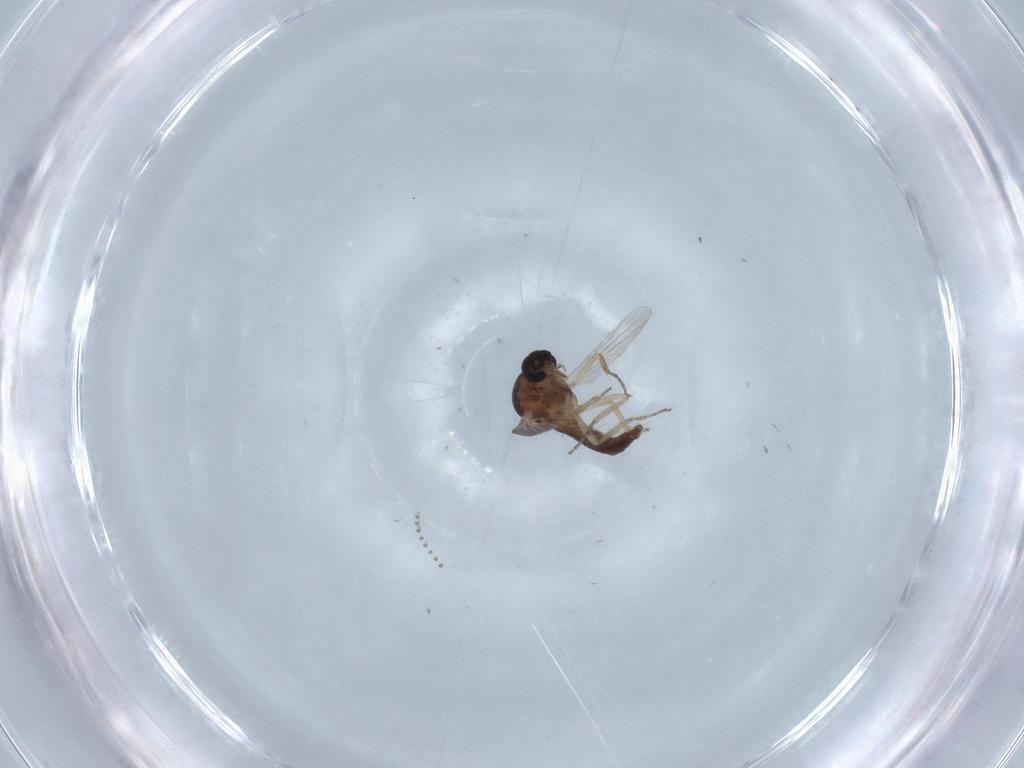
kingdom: Animalia
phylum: Arthropoda
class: Insecta
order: Diptera
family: Ceratopogonidae
